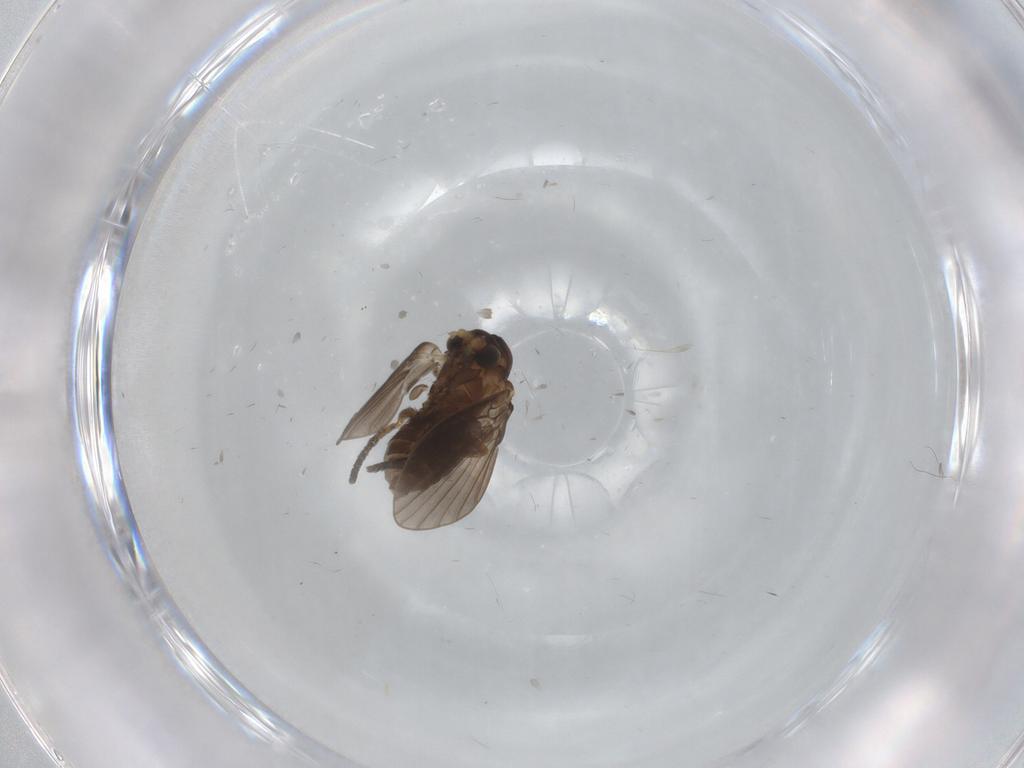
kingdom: Animalia
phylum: Arthropoda
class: Insecta
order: Diptera
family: Psychodidae
